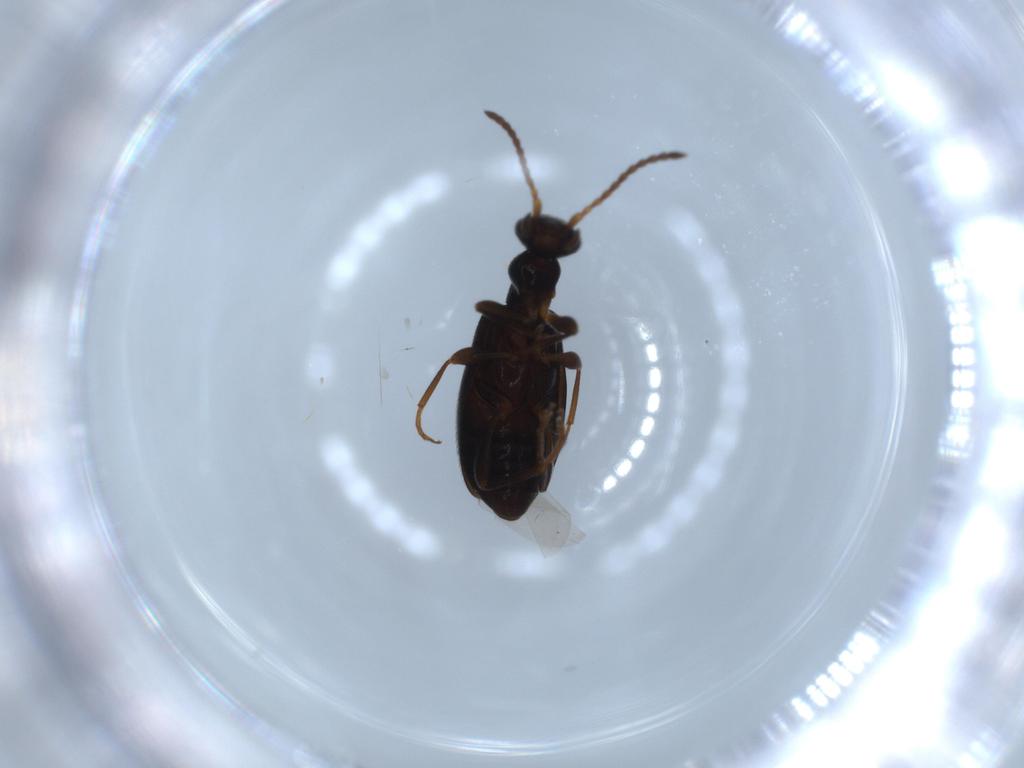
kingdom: Animalia
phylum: Arthropoda
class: Insecta
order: Coleoptera
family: Anthicidae
